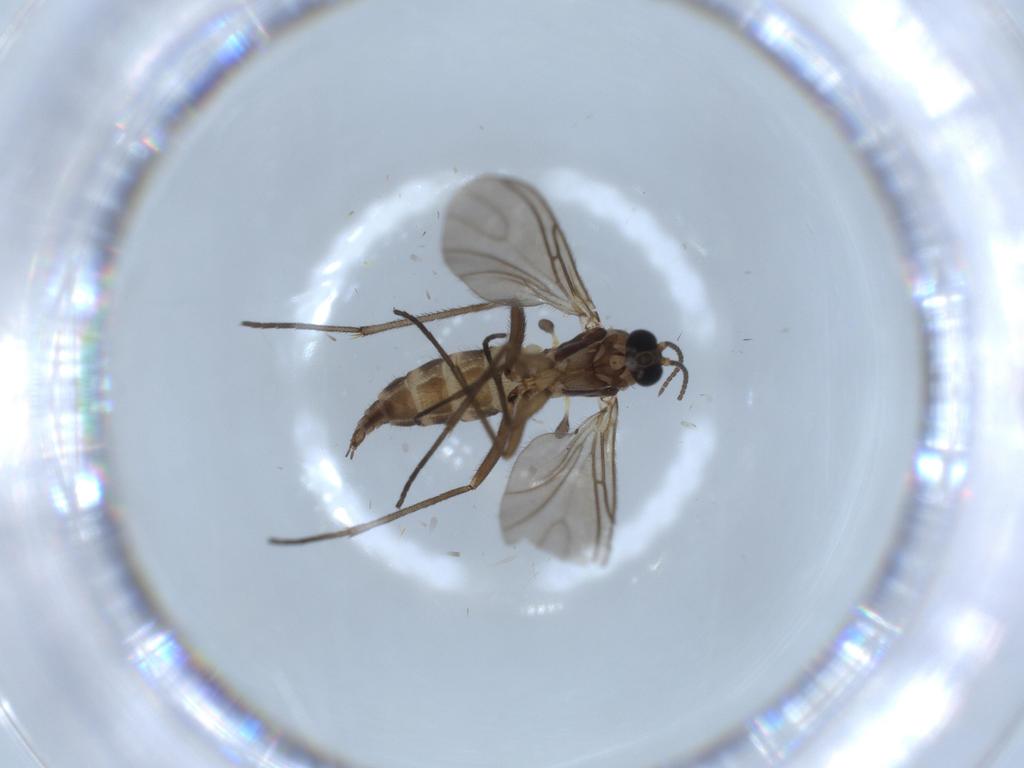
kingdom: Animalia
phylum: Arthropoda
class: Insecta
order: Diptera
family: Sciaridae
